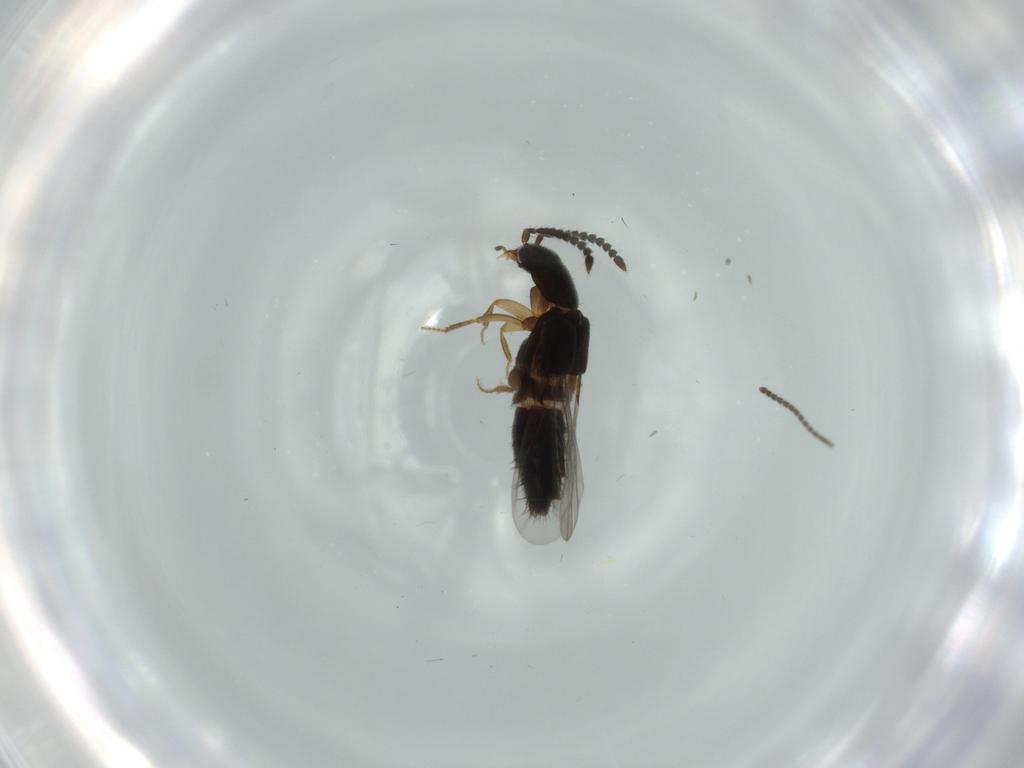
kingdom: Animalia
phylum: Arthropoda
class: Insecta
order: Coleoptera
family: Staphylinidae
